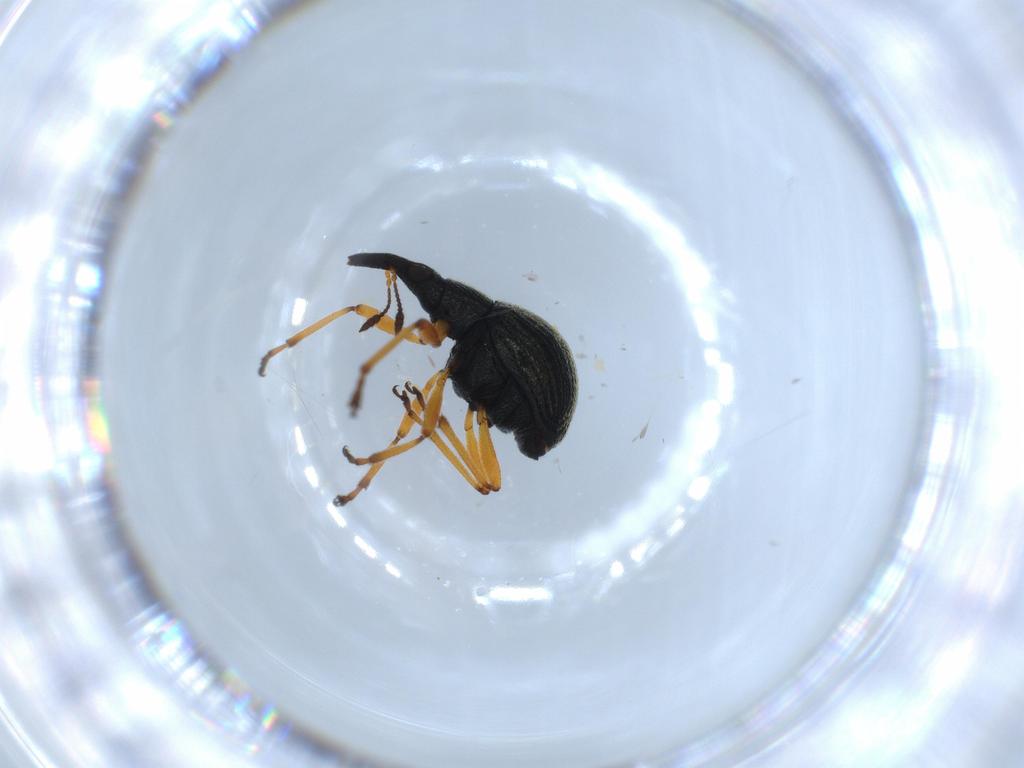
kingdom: Animalia
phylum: Arthropoda
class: Insecta
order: Coleoptera
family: Brentidae
